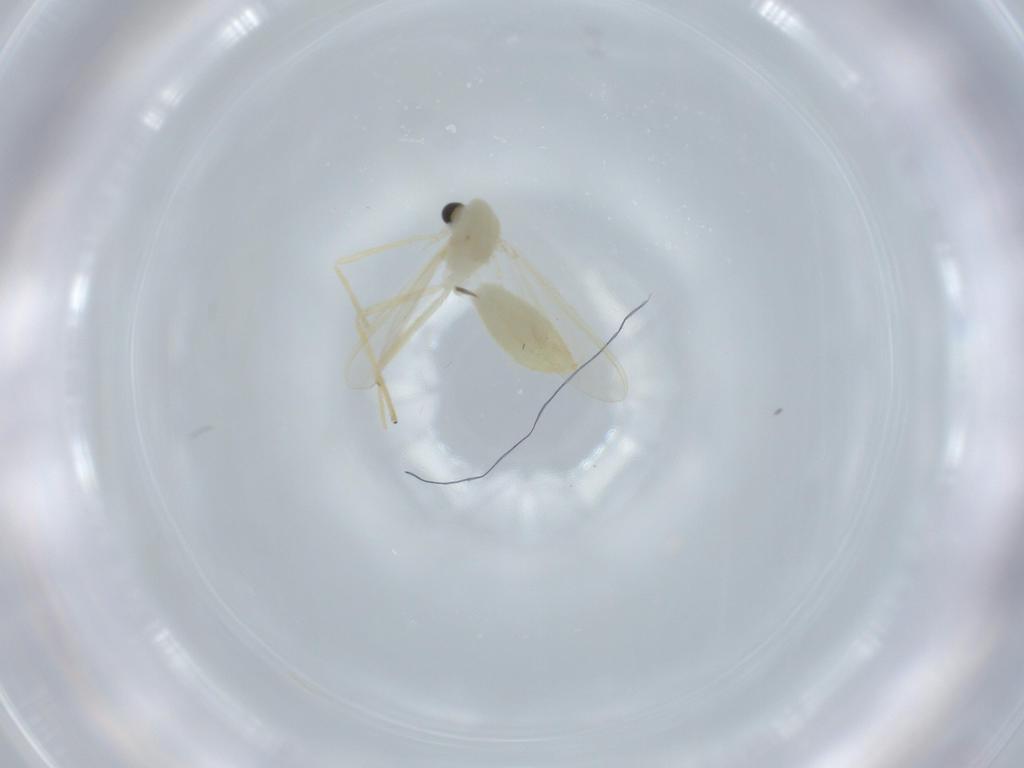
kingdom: Animalia
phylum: Arthropoda
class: Insecta
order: Diptera
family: Chironomidae
